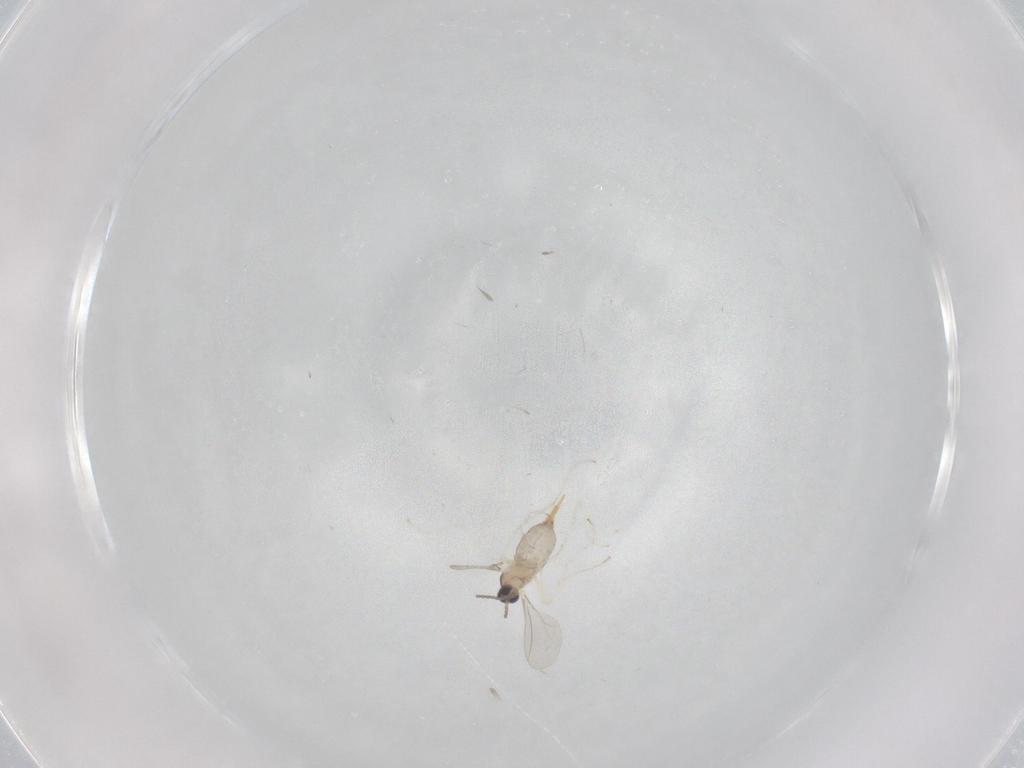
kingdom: Animalia
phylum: Arthropoda
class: Insecta
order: Diptera
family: Cecidomyiidae
